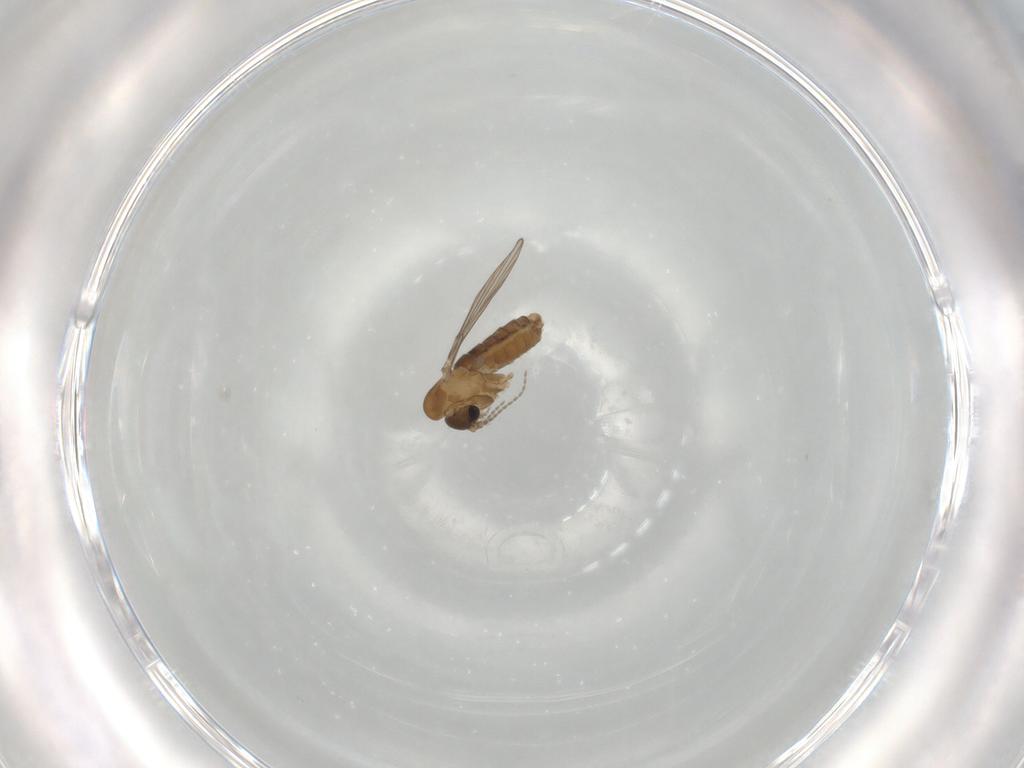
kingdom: Animalia
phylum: Arthropoda
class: Insecta
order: Diptera
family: Psychodidae
